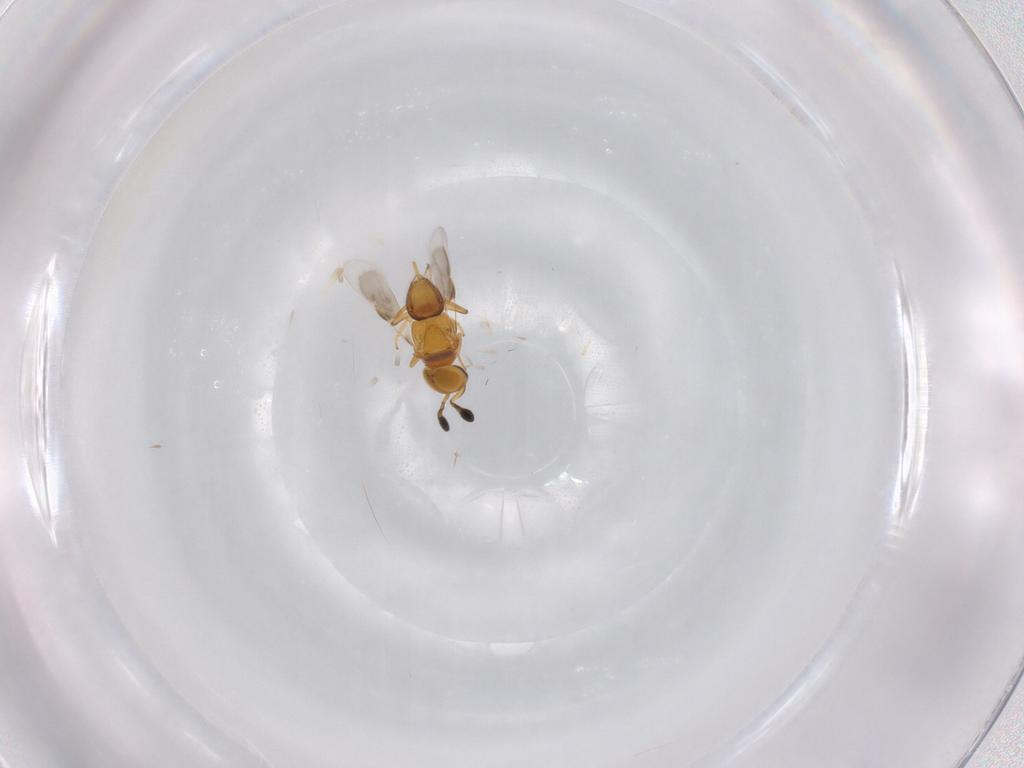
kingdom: Animalia
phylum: Arthropoda
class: Insecta
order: Hymenoptera
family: Encyrtidae
